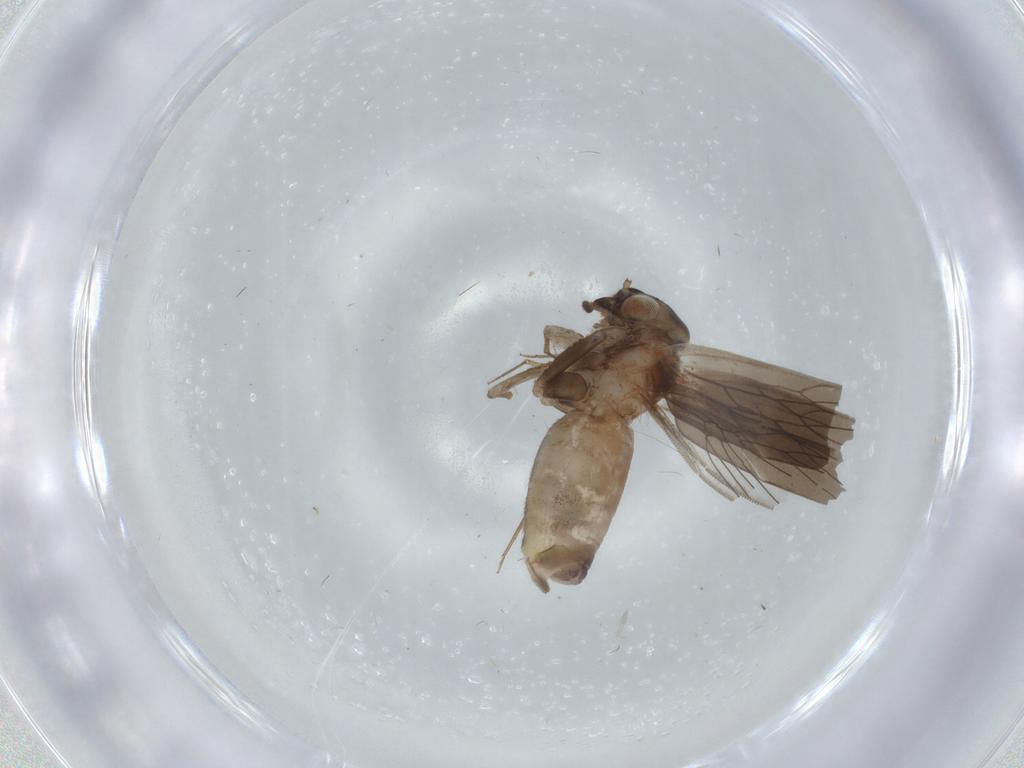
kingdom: Animalia
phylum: Arthropoda
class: Insecta
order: Psocodea
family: Lepidopsocidae
